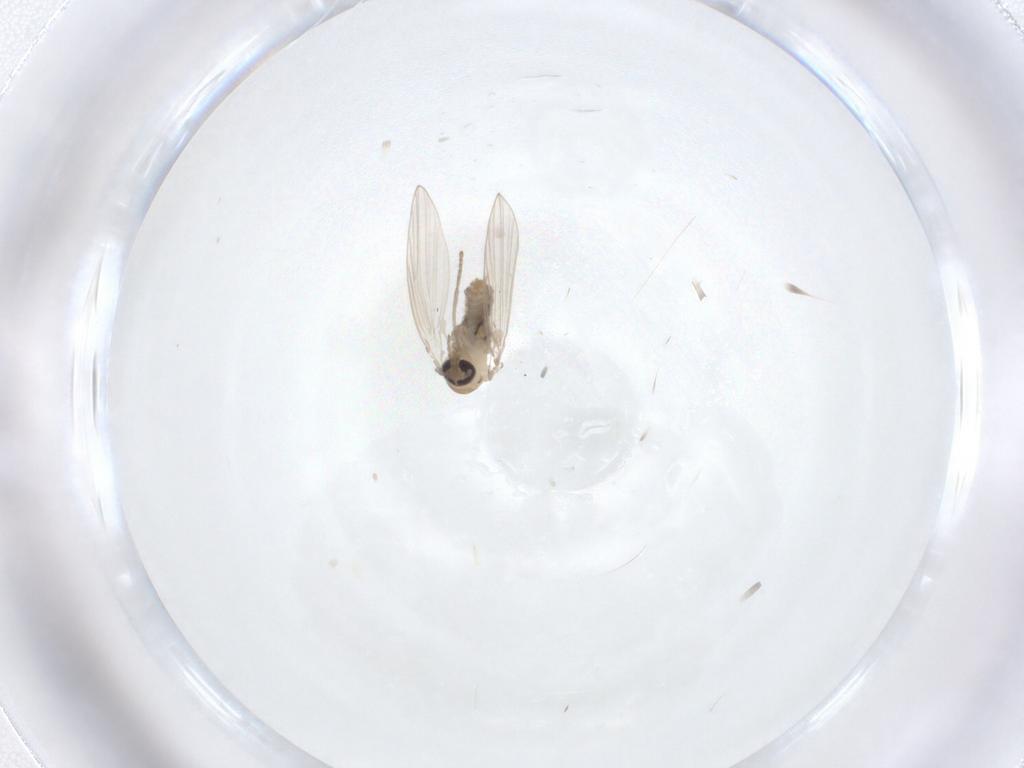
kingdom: Animalia
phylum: Arthropoda
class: Insecta
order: Diptera
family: Psychodidae
